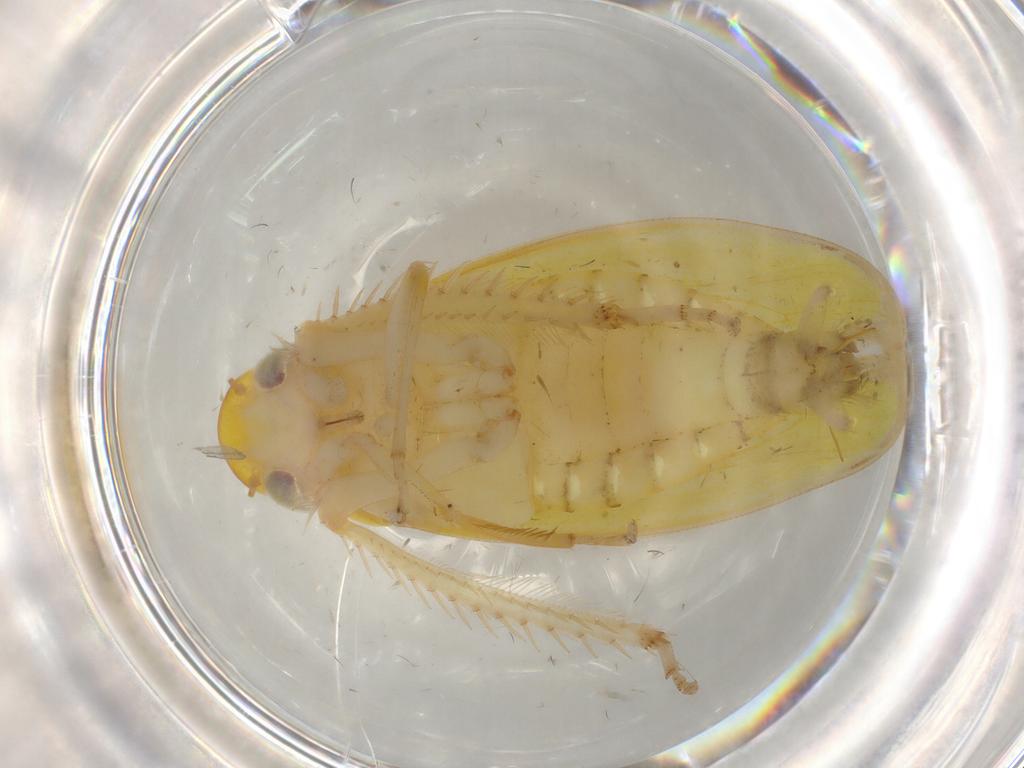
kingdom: Animalia
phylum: Arthropoda
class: Insecta
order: Hemiptera
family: Cicadellidae
